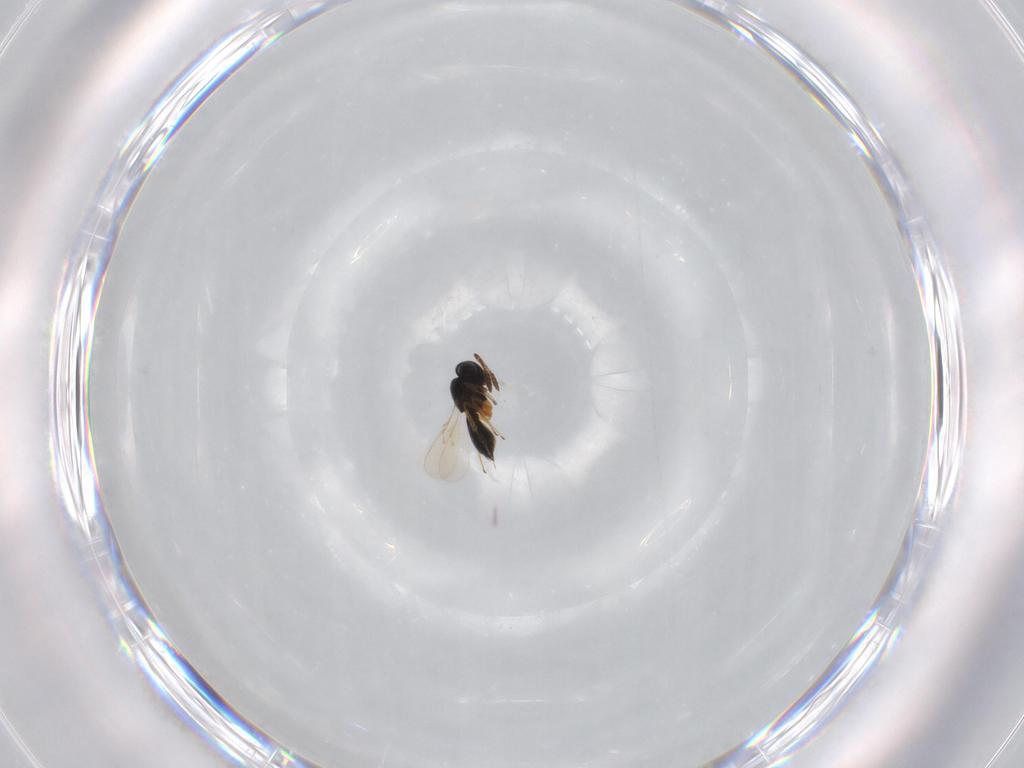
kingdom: Animalia
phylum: Arthropoda
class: Insecta
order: Hymenoptera
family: Scelionidae
